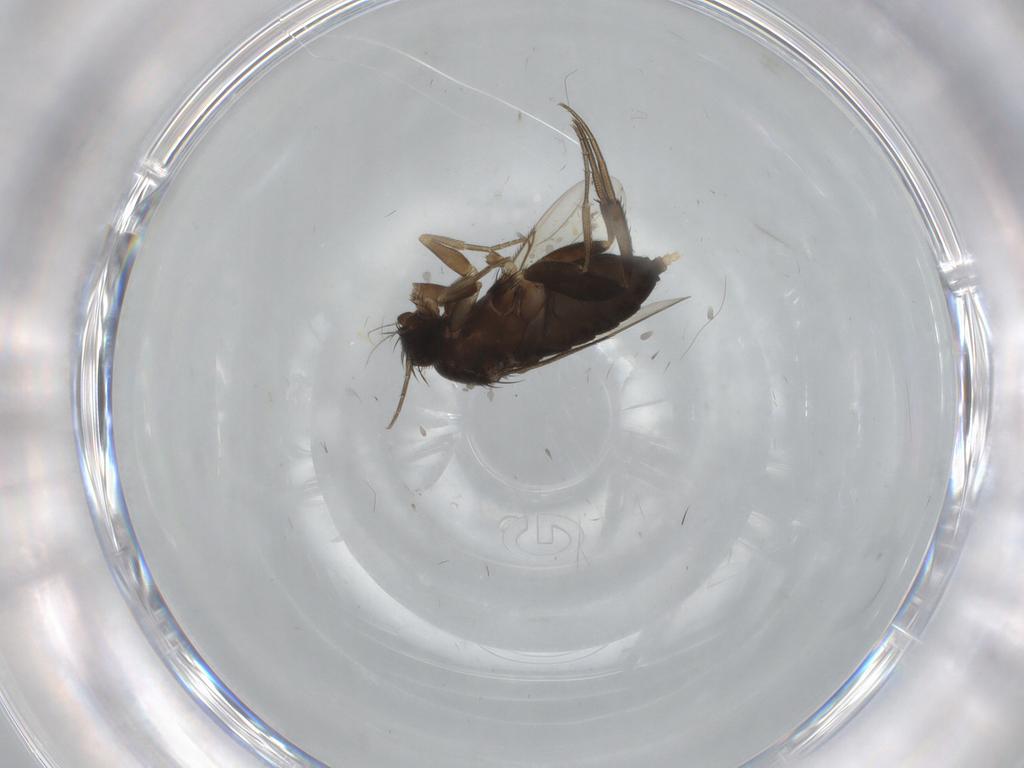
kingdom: Animalia
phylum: Arthropoda
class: Insecta
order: Diptera
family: Phoridae
